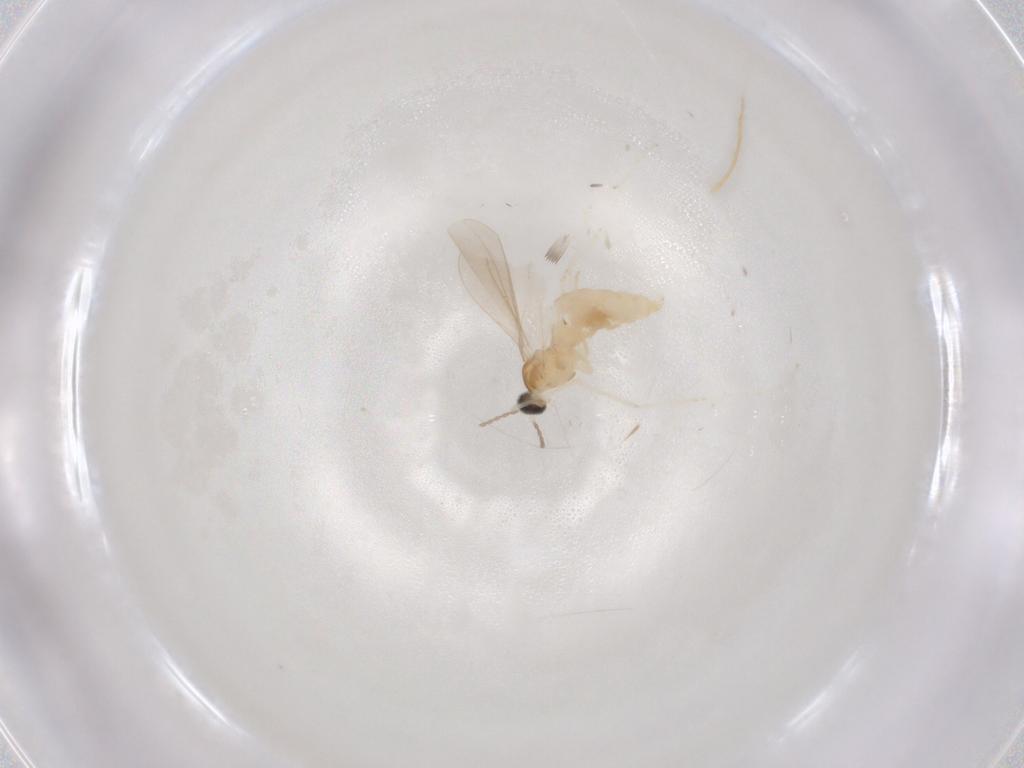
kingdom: Animalia
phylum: Arthropoda
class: Insecta
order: Diptera
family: Cecidomyiidae
